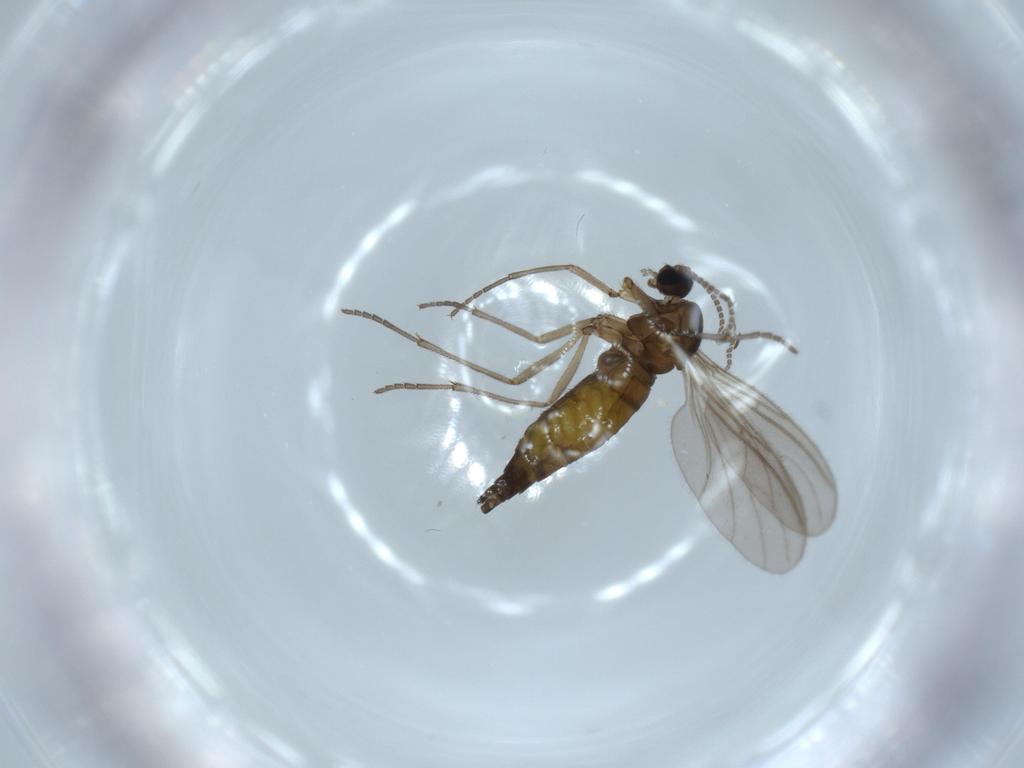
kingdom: Animalia
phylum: Arthropoda
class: Insecta
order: Diptera
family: Sciaridae
